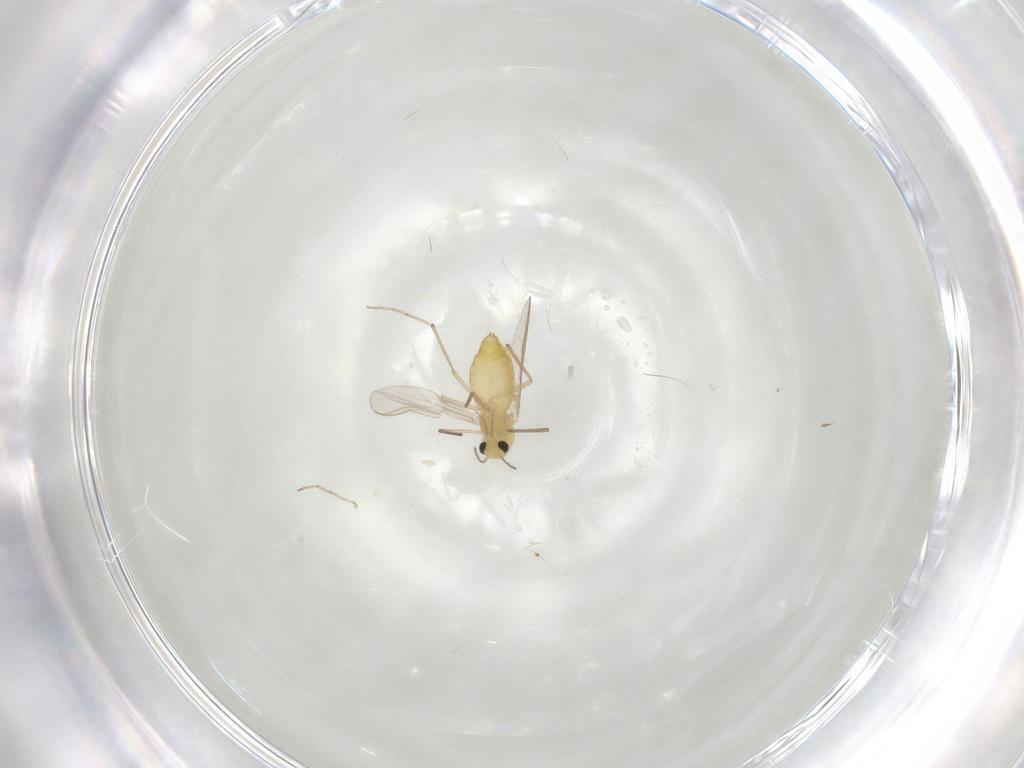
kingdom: Animalia
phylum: Arthropoda
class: Insecta
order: Diptera
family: Chironomidae
